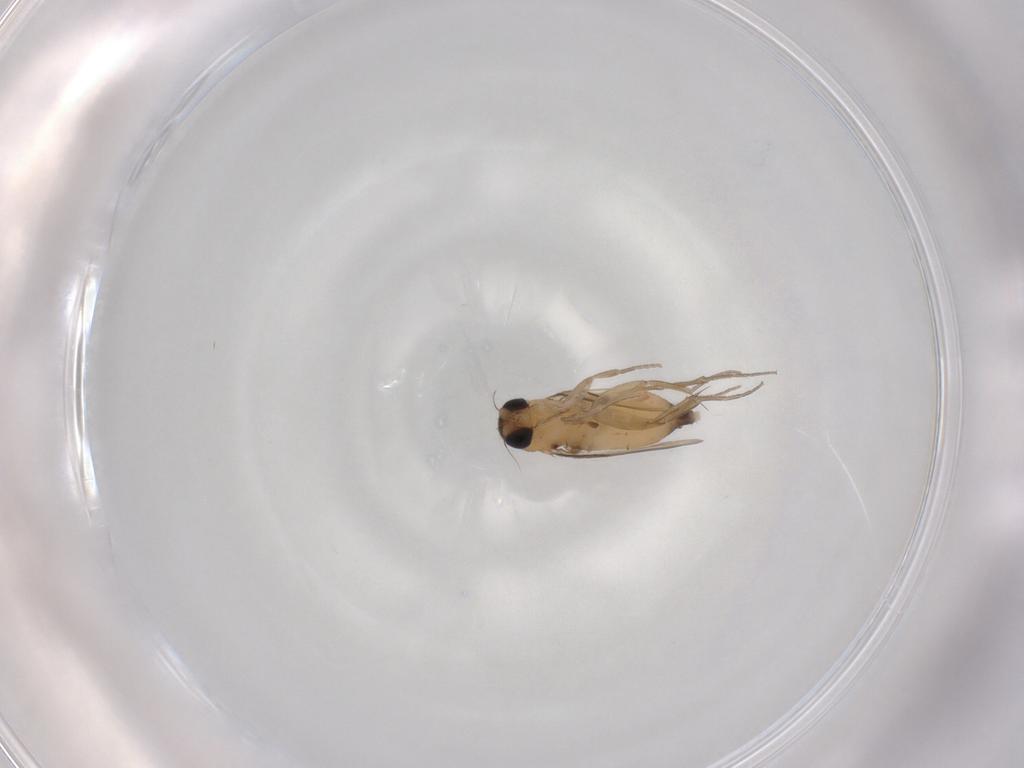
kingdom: Animalia
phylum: Arthropoda
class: Insecta
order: Diptera
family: Phoridae
